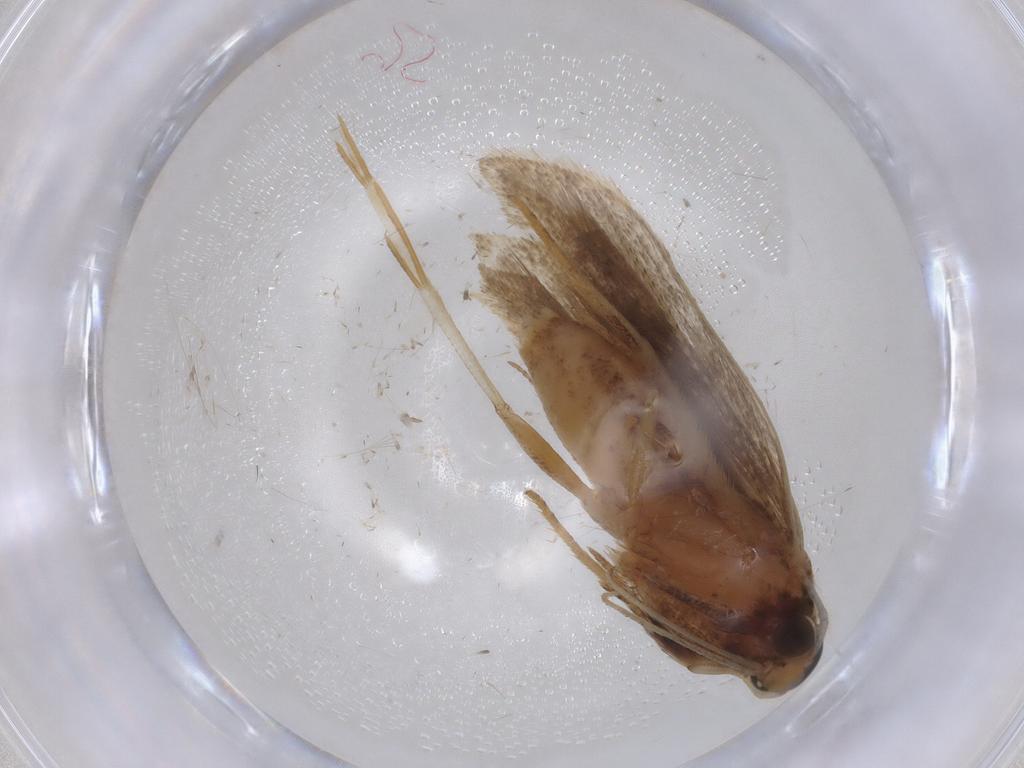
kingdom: Animalia
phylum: Arthropoda
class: Insecta
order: Lepidoptera
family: Gelechiidae
